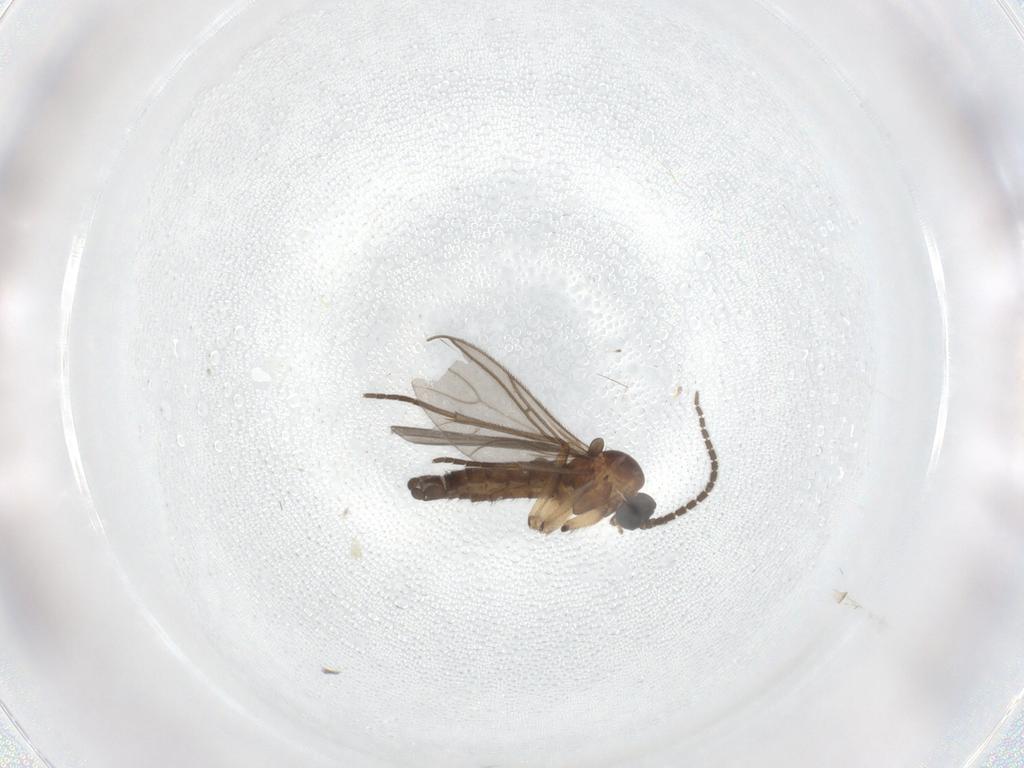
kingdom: Animalia
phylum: Arthropoda
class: Insecta
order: Diptera
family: Sciaridae
